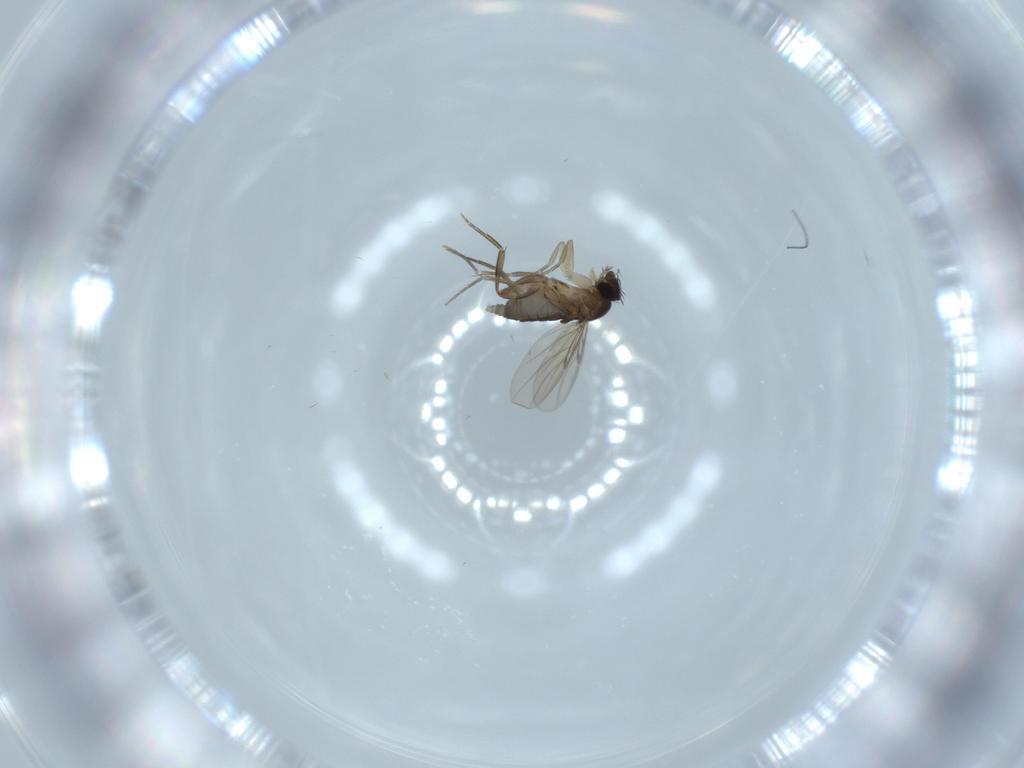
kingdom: Animalia
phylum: Arthropoda
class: Insecta
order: Diptera
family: Phoridae
